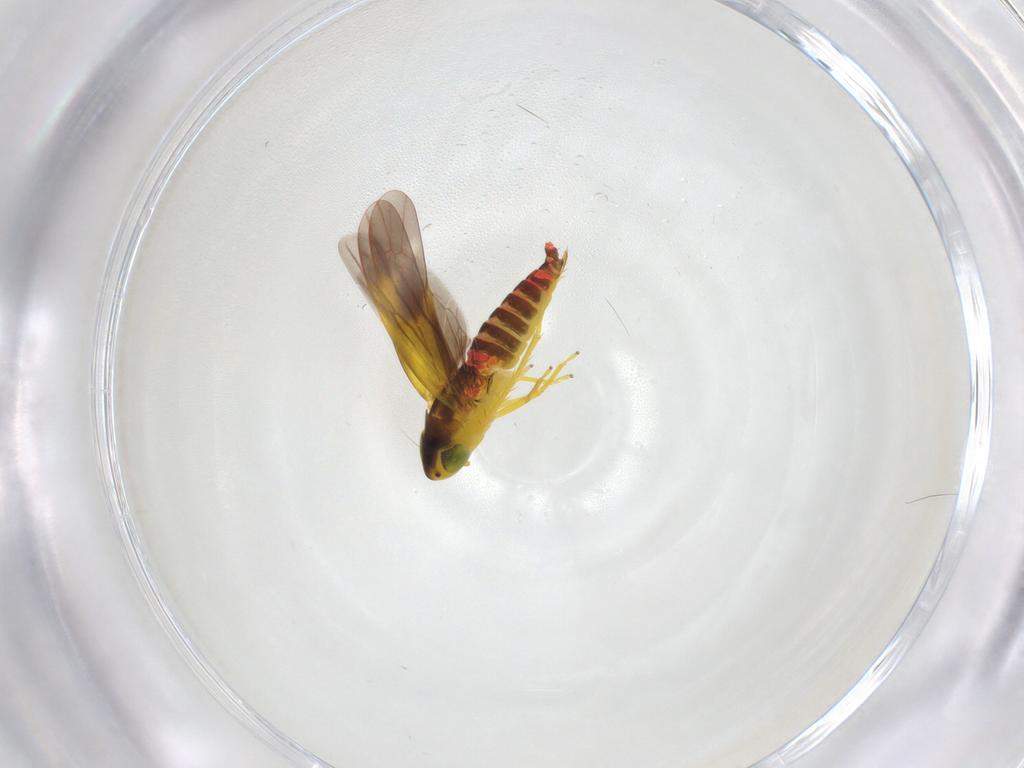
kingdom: Animalia
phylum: Arthropoda
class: Insecta
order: Hemiptera
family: Cicadellidae
